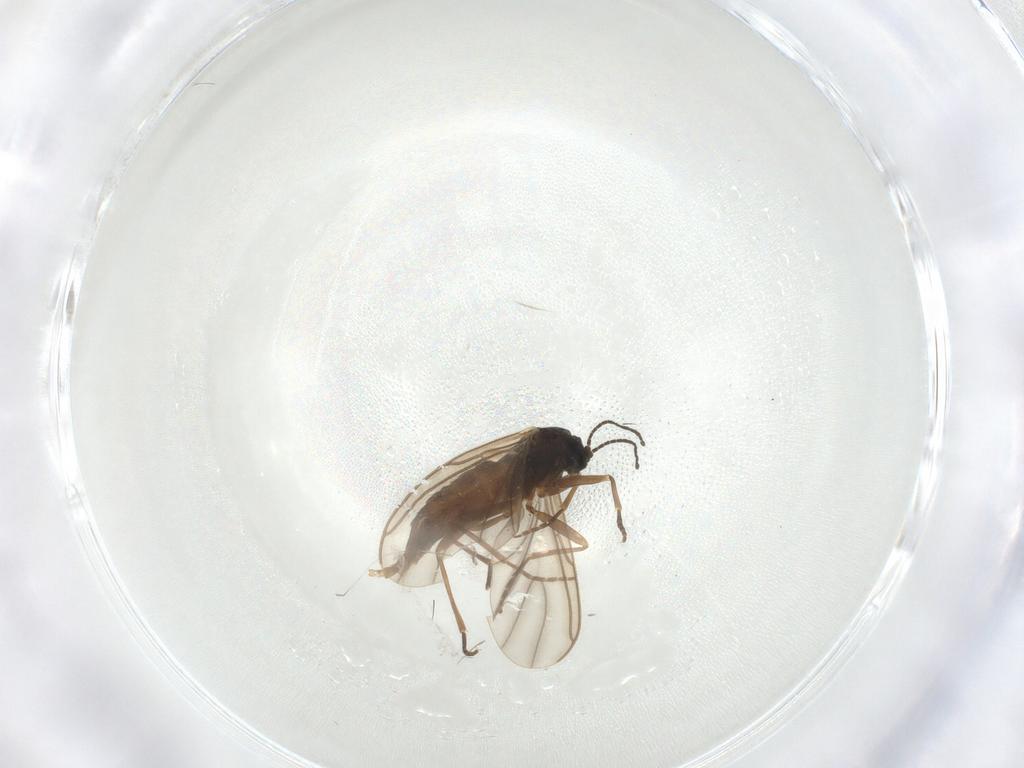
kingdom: Animalia
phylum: Arthropoda
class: Insecta
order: Diptera
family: Sciaridae
